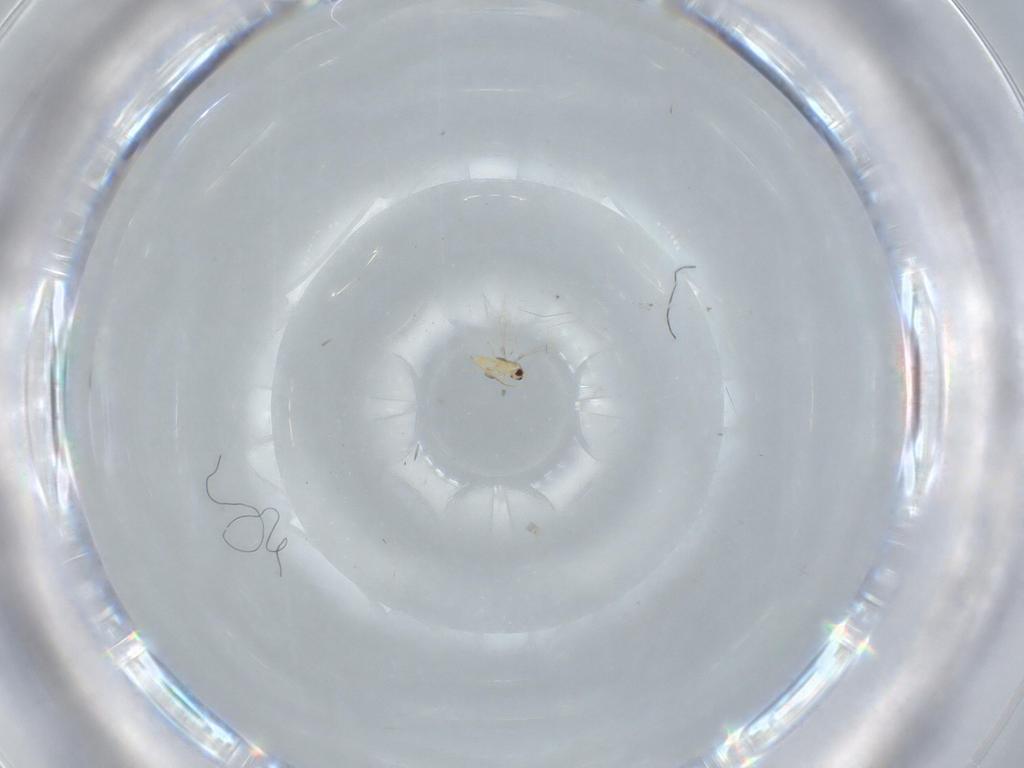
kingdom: Animalia
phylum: Arthropoda
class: Insecta
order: Hymenoptera
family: Mymaridae
